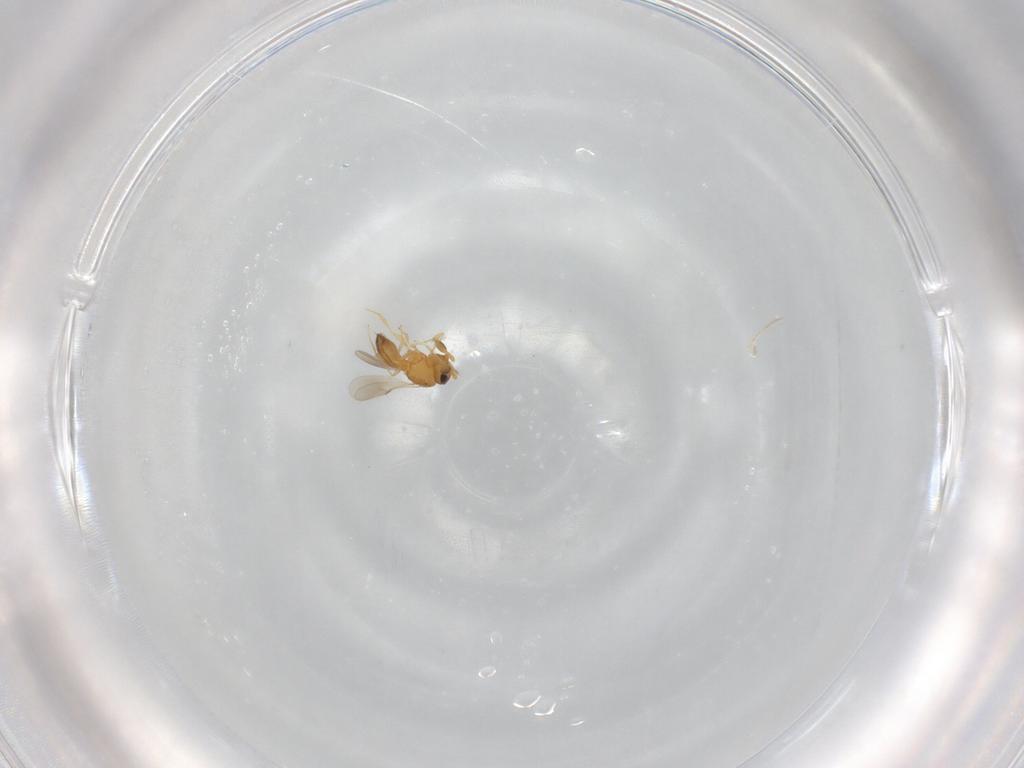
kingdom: Animalia
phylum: Arthropoda
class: Insecta
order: Hymenoptera
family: Scelionidae
